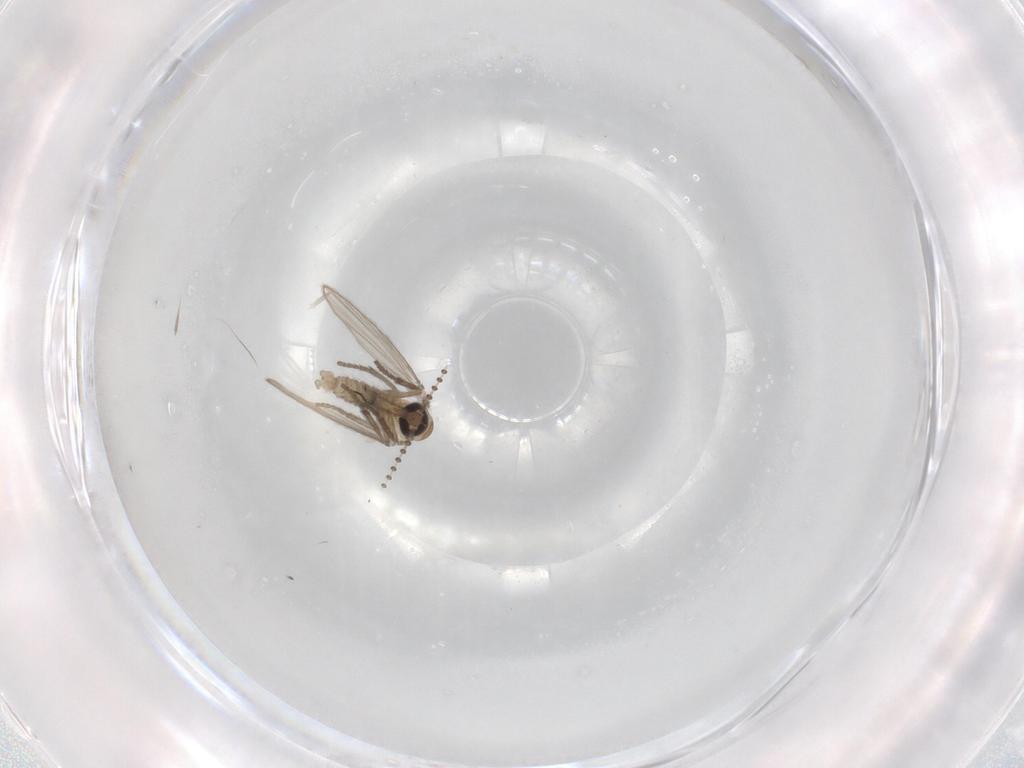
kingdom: Animalia
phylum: Arthropoda
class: Insecta
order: Diptera
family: Psychodidae
